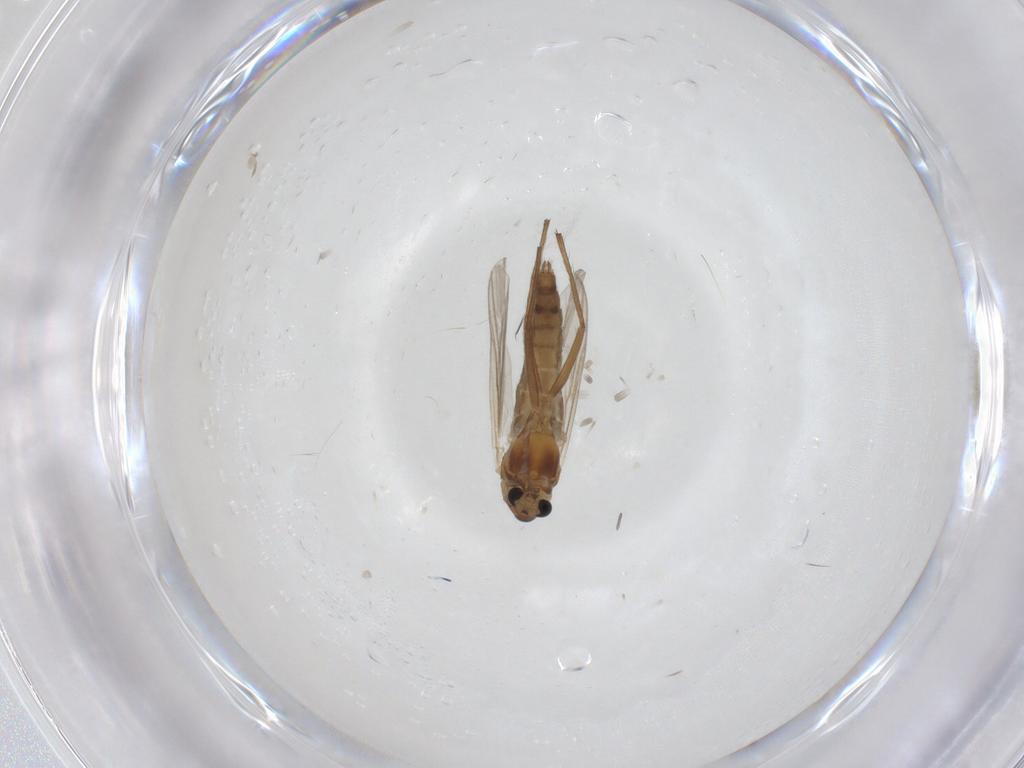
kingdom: Animalia
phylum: Arthropoda
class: Insecta
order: Diptera
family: Chironomidae
